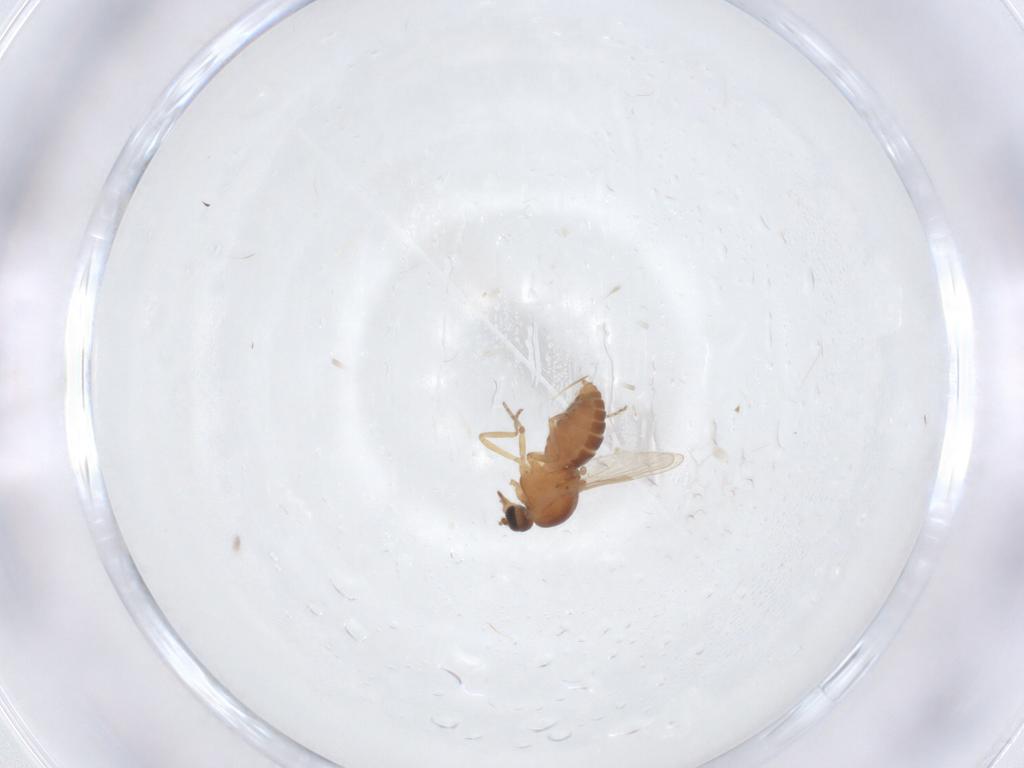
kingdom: Animalia
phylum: Arthropoda
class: Insecta
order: Diptera
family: Ceratopogonidae
